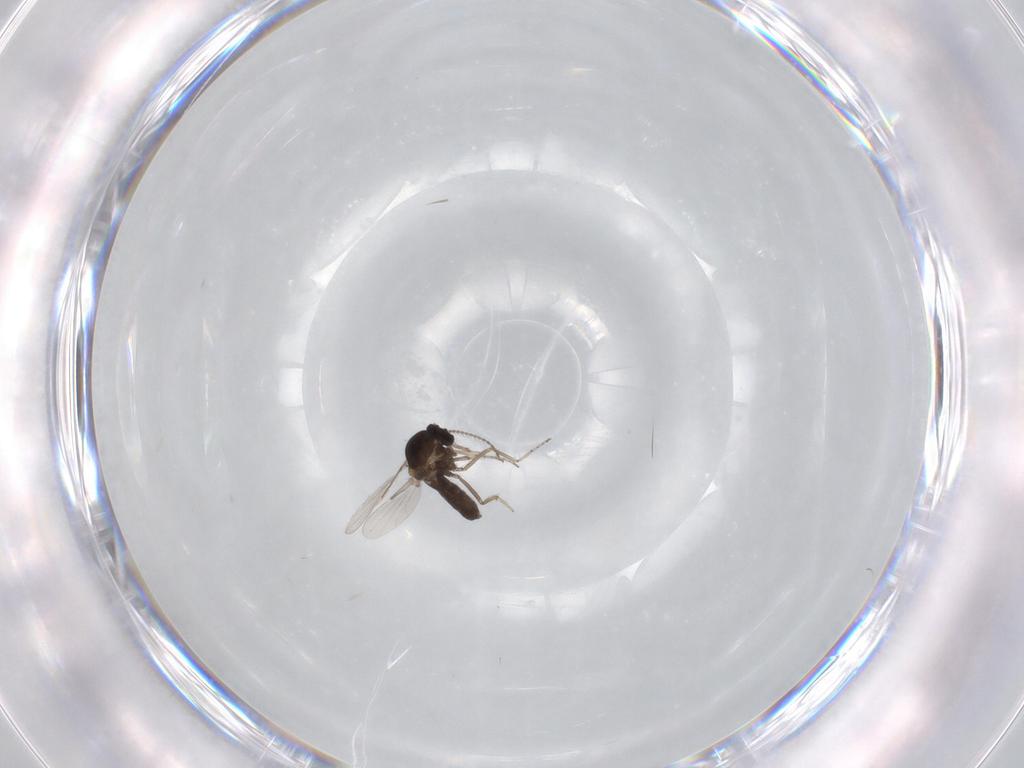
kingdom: Animalia
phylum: Arthropoda
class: Insecta
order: Diptera
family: Ceratopogonidae
